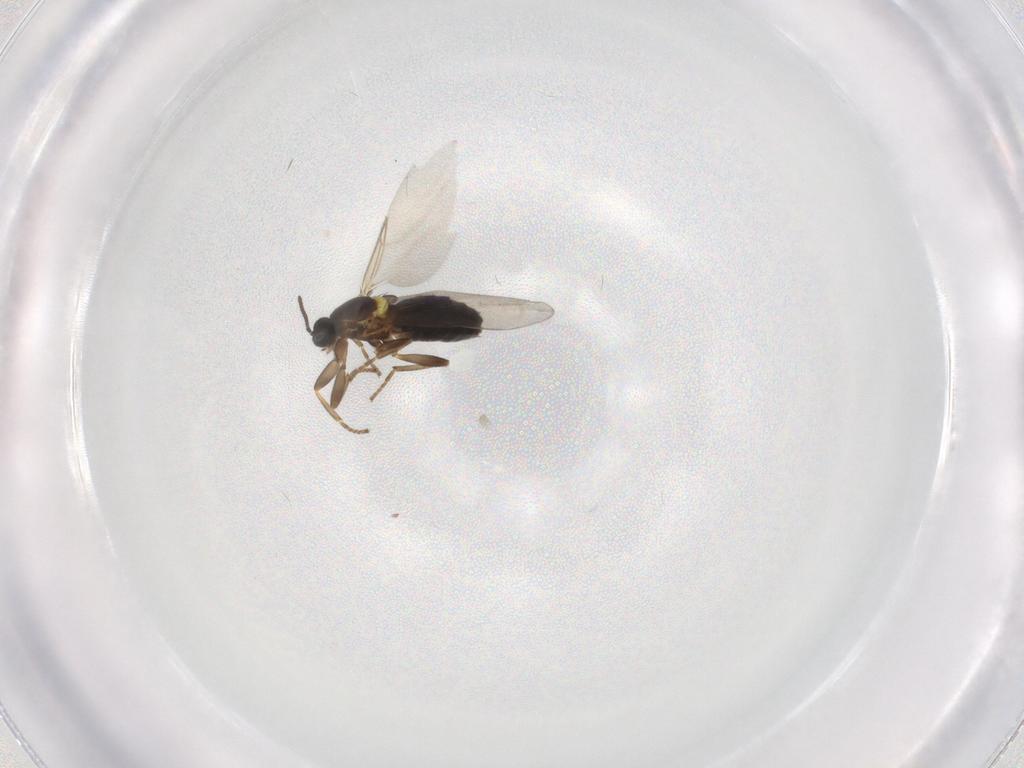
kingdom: Animalia
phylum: Arthropoda
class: Insecta
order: Diptera
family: Scatopsidae
